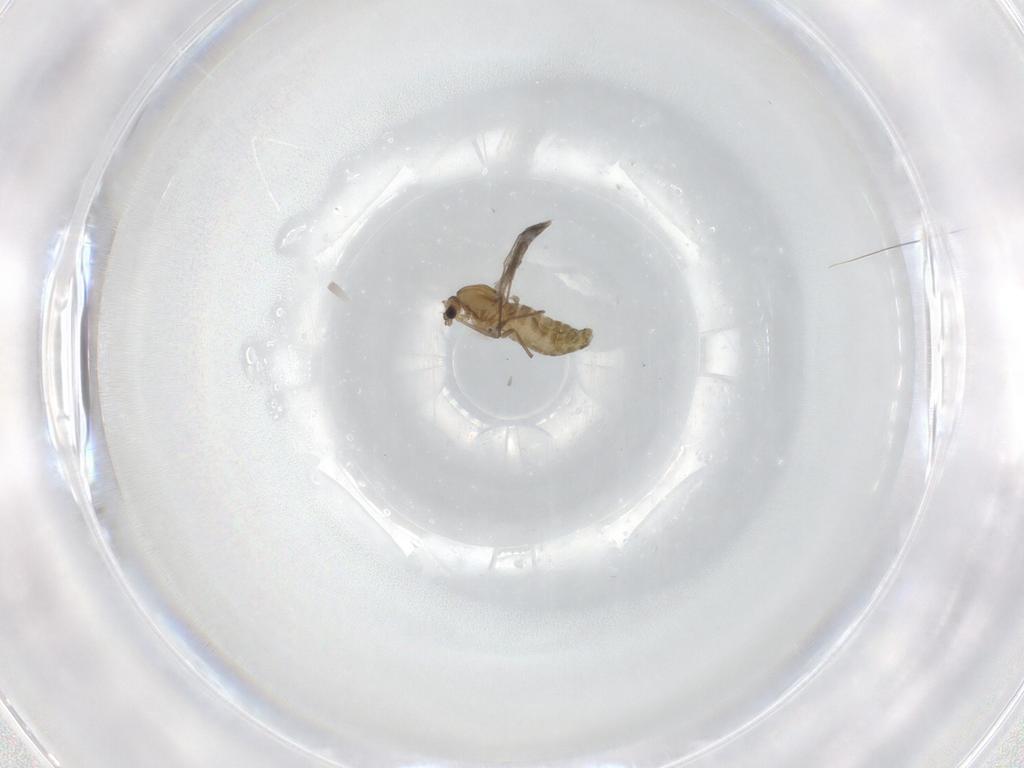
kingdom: Animalia
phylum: Arthropoda
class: Insecta
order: Diptera
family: Chironomidae
